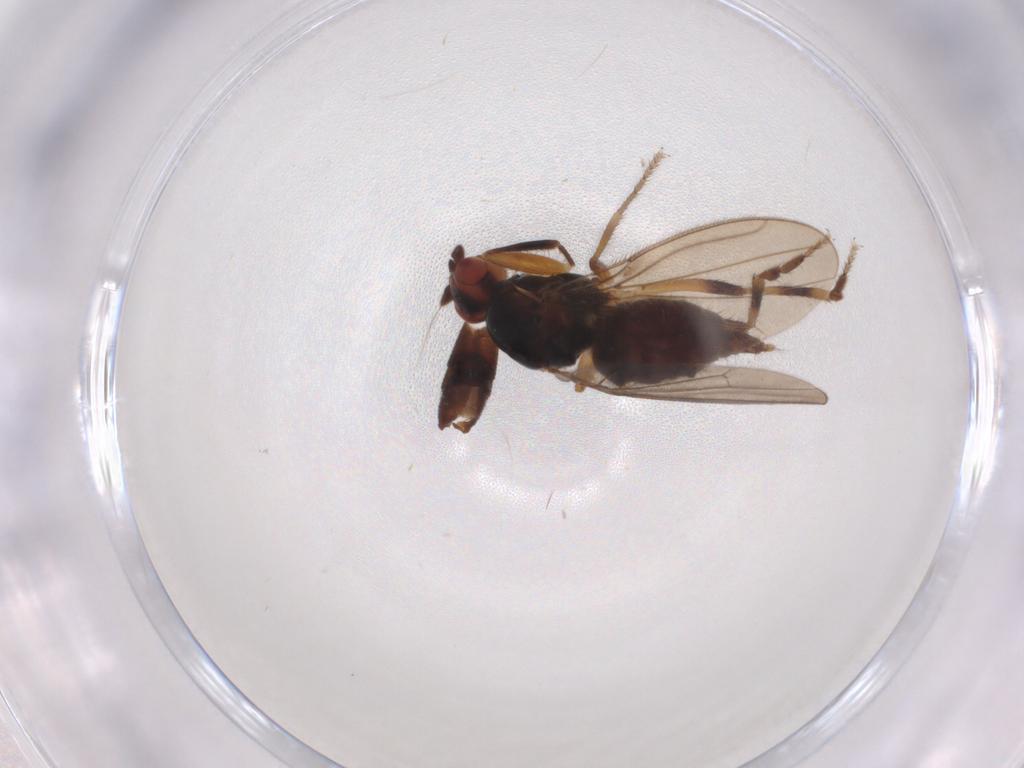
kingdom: Animalia
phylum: Arthropoda
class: Insecta
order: Diptera
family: Sphaeroceridae
